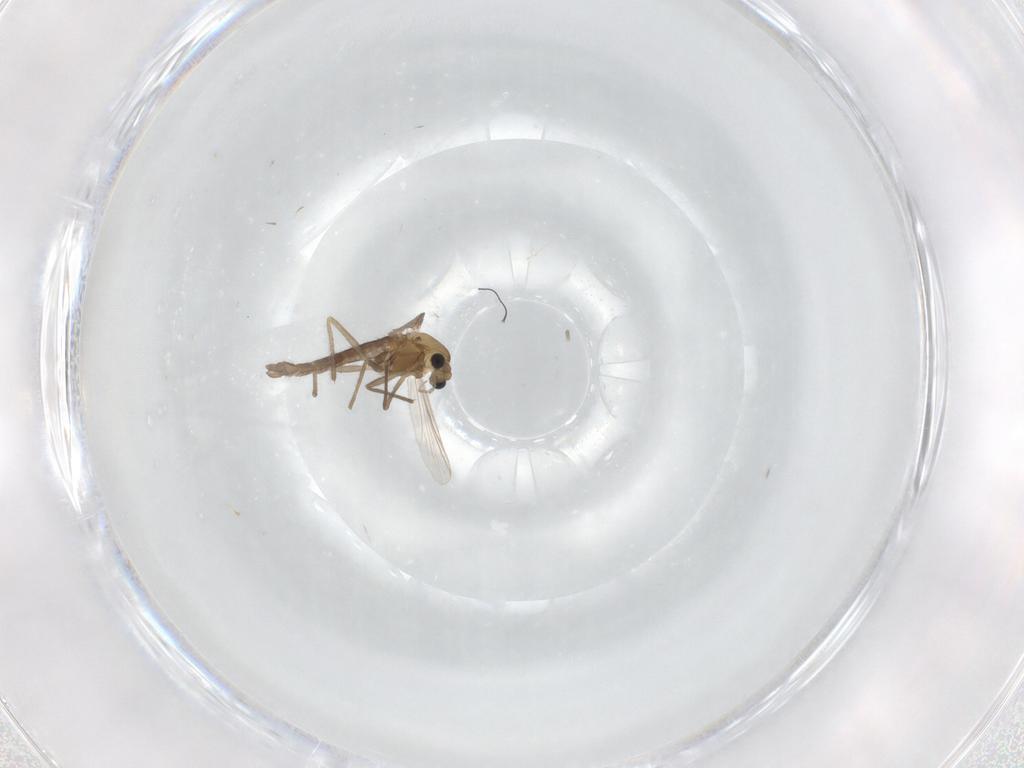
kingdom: Animalia
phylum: Arthropoda
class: Insecta
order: Diptera
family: Chironomidae
